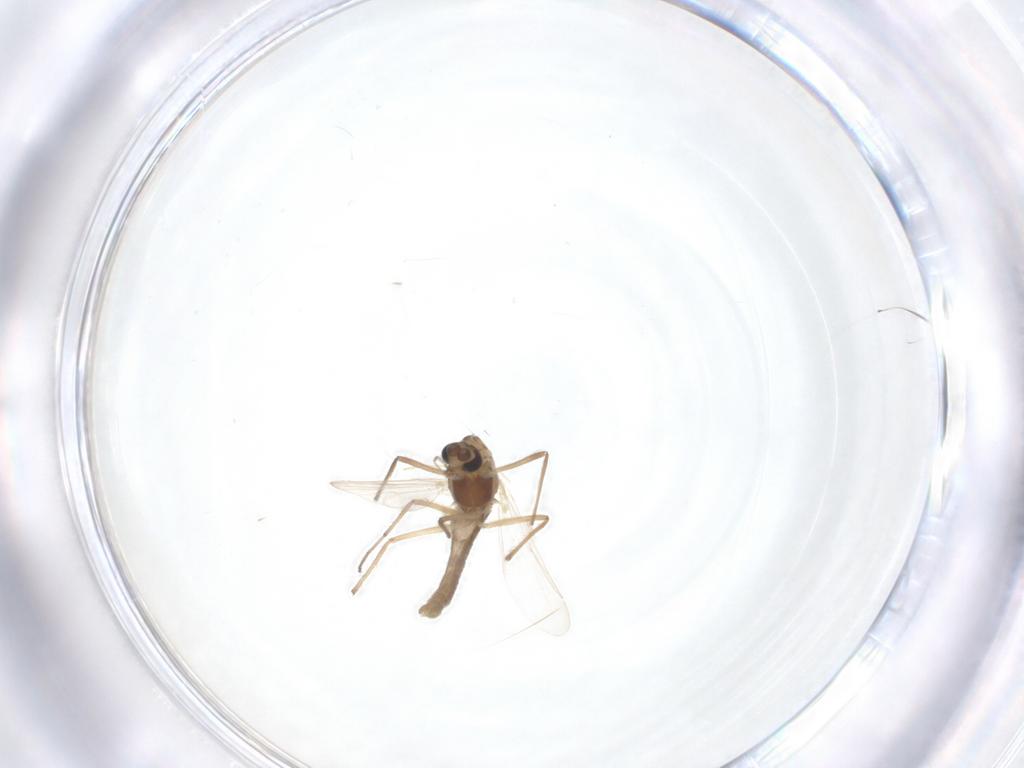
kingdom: Animalia
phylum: Arthropoda
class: Insecta
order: Diptera
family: Chironomidae
